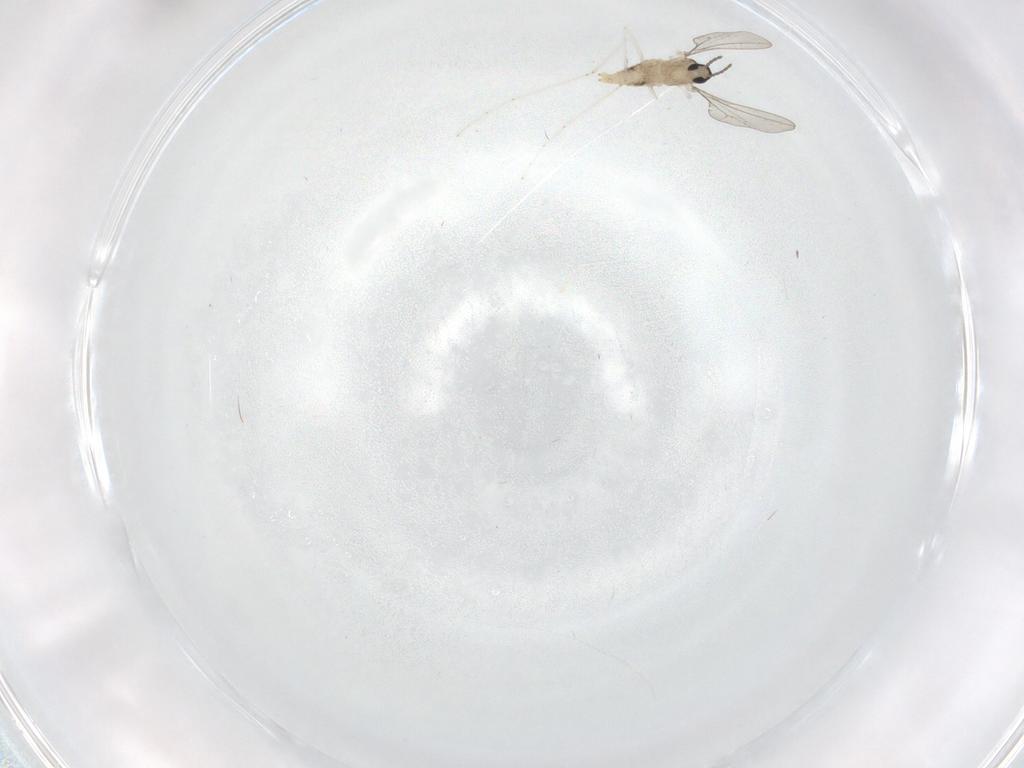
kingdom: Animalia
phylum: Arthropoda
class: Insecta
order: Diptera
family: Cecidomyiidae
